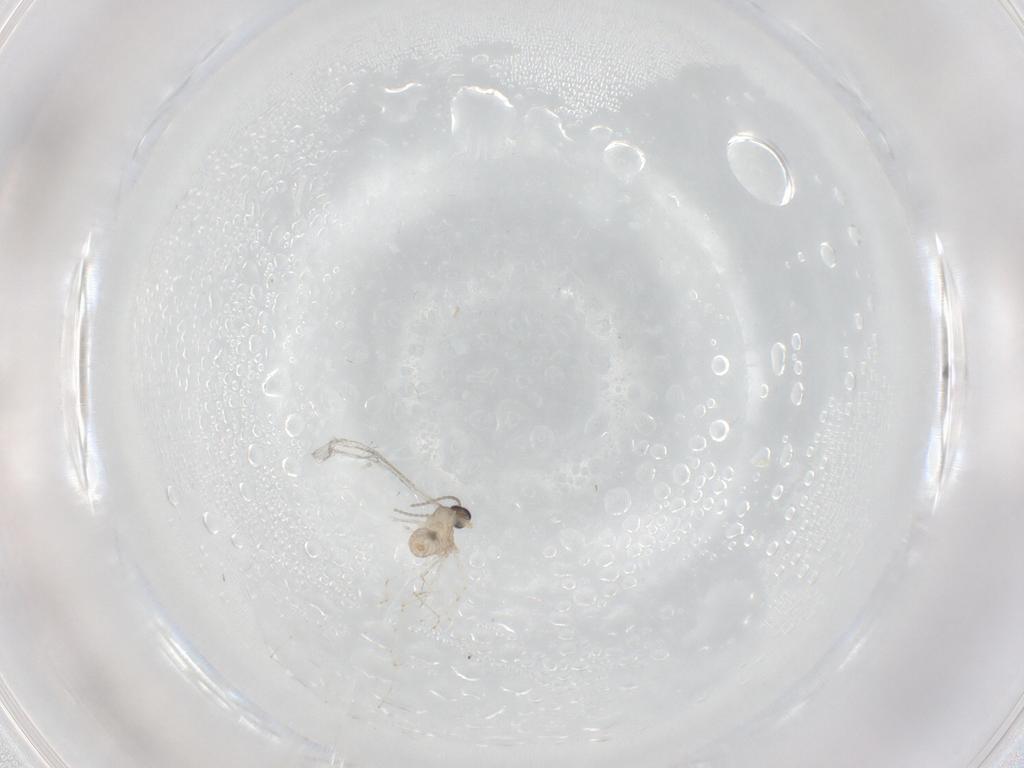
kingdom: Animalia
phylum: Arthropoda
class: Insecta
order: Diptera
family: Cecidomyiidae
